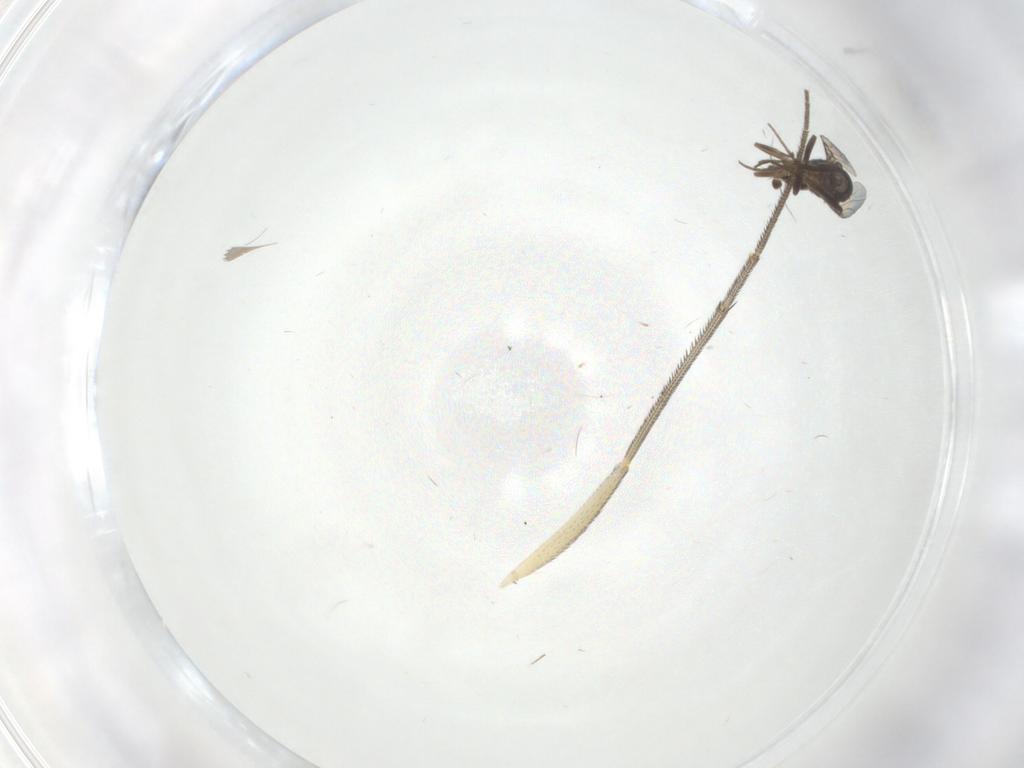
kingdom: Animalia
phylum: Arthropoda
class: Insecta
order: Diptera
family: Phoridae
